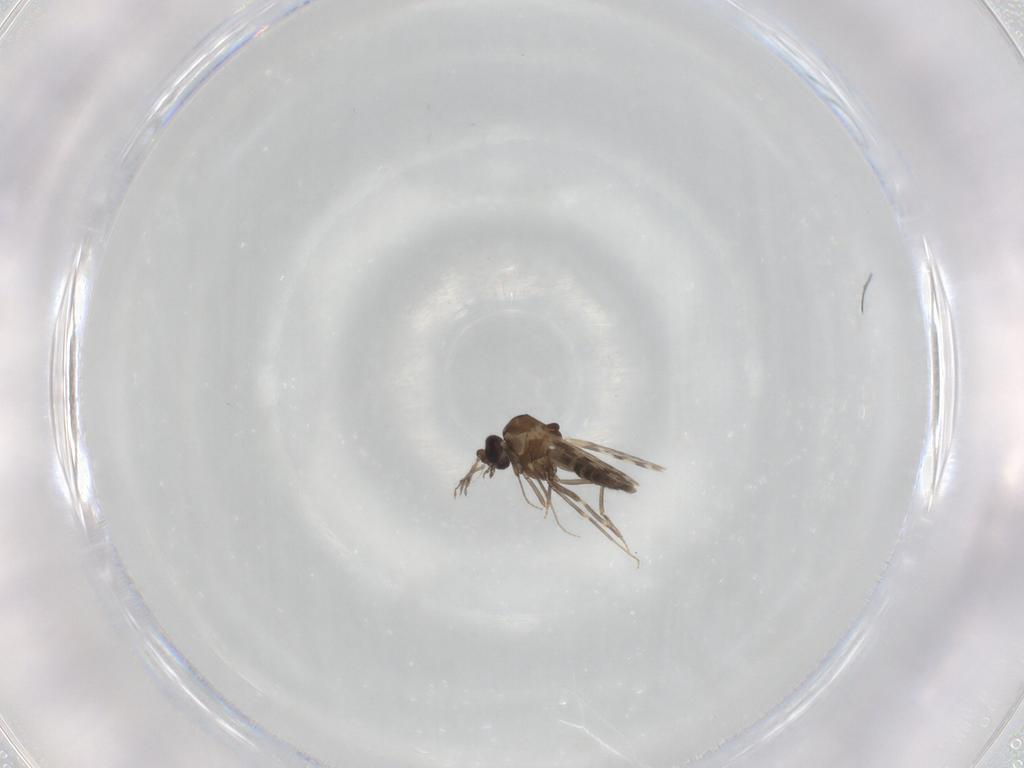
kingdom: Animalia
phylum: Arthropoda
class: Insecta
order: Diptera
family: Ceratopogonidae
